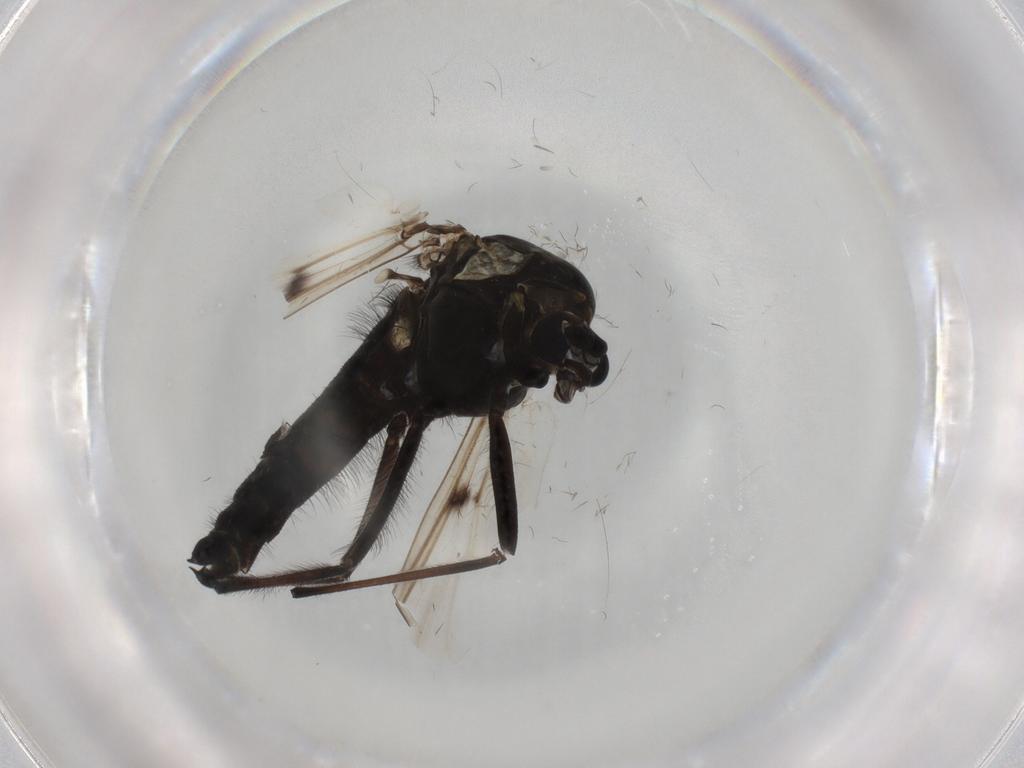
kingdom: Animalia
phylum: Arthropoda
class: Insecta
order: Diptera
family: Chironomidae
